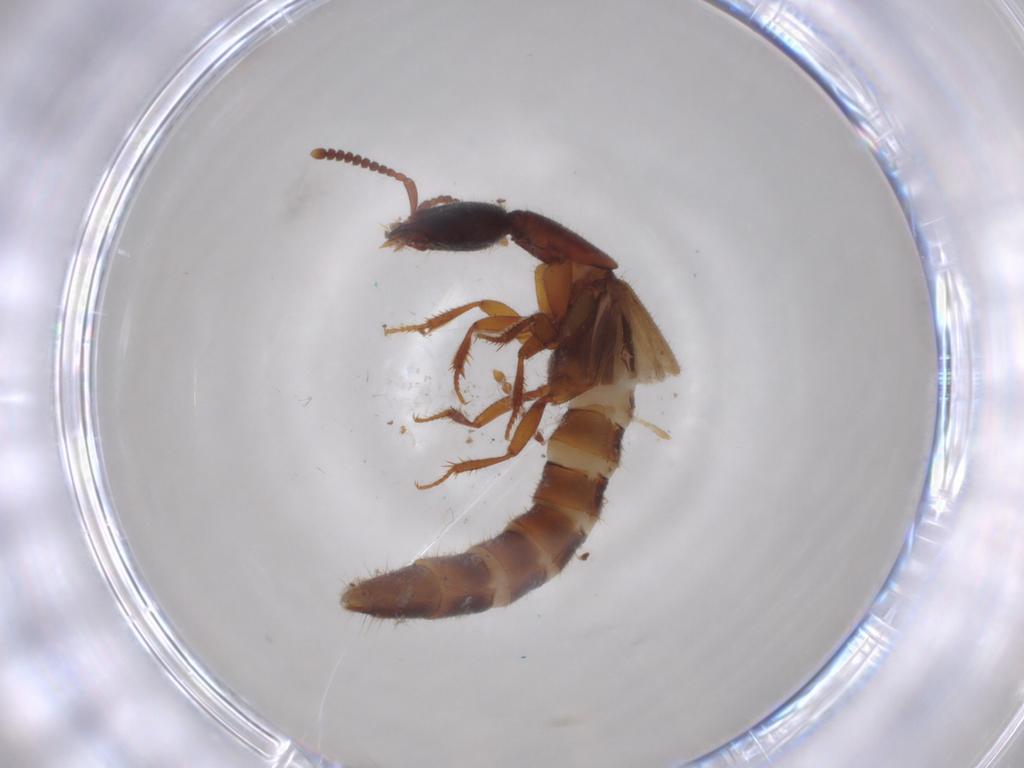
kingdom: Animalia
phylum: Arthropoda
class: Insecta
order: Coleoptera
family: Staphylinidae
